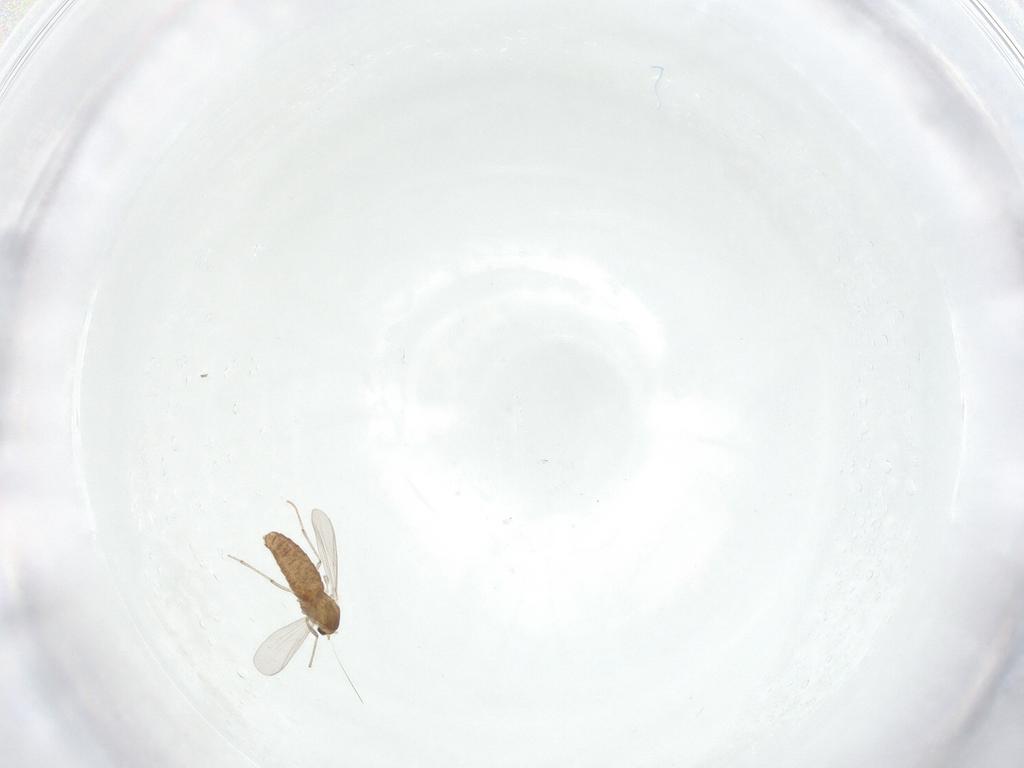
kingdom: Animalia
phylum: Arthropoda
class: Insecta
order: Diptera
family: Chironomidae
